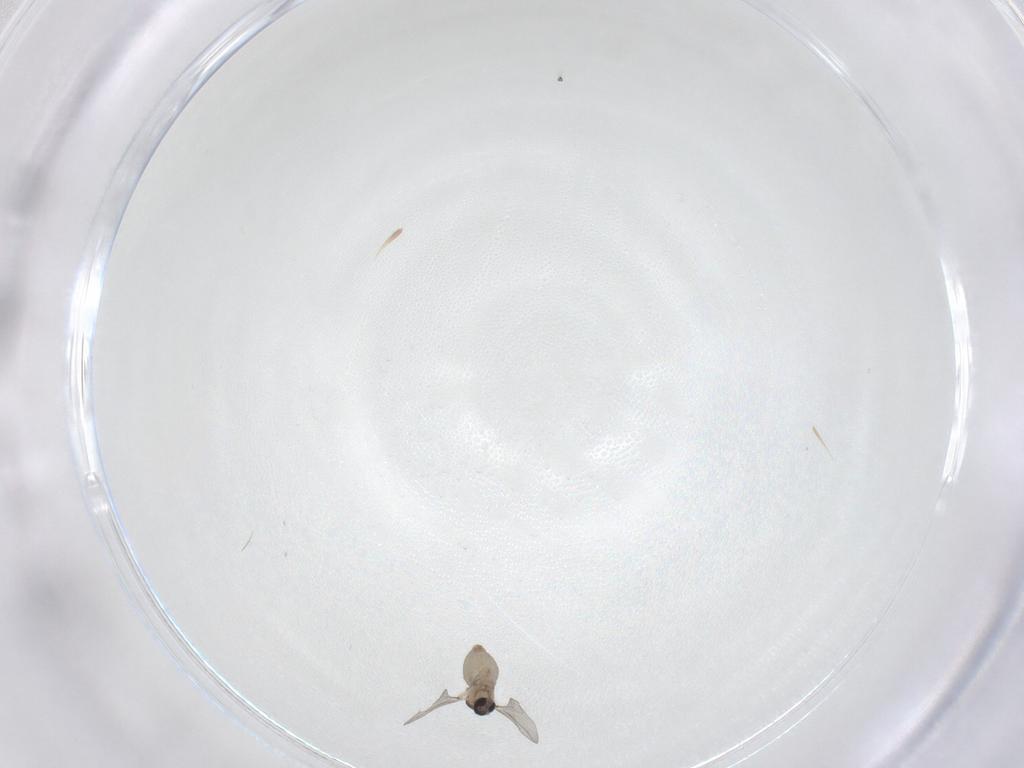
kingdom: Animalia
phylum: Arthropoda
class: Insecta
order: Diptera
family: Cecidomyiidae
